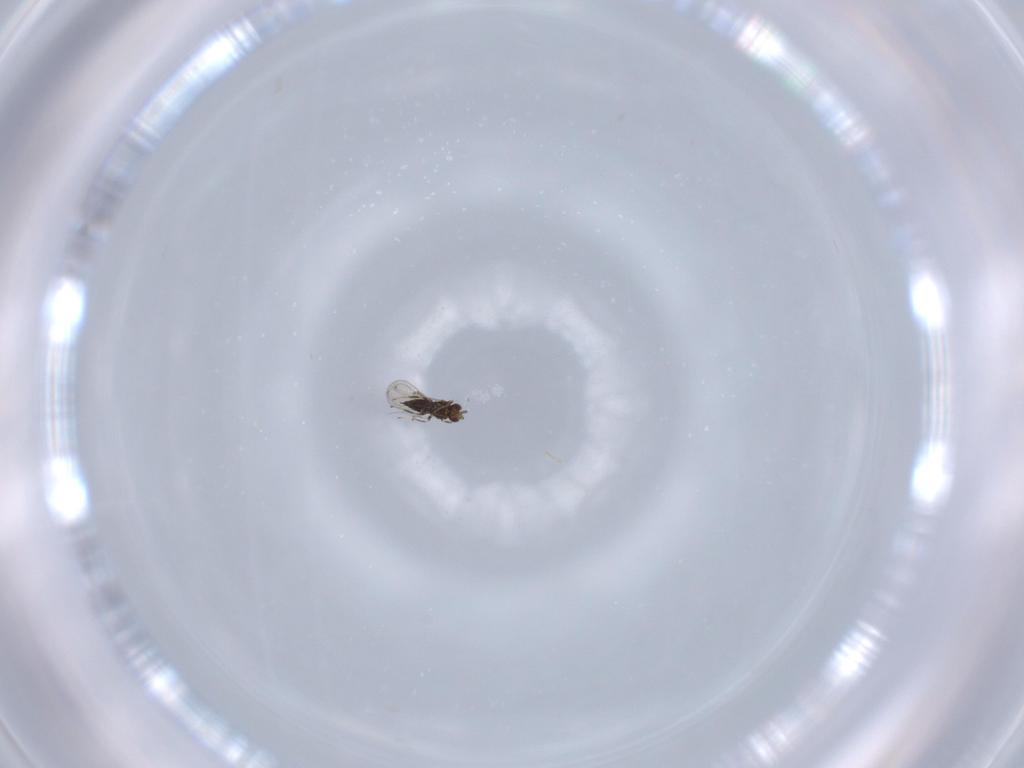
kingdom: Animalia
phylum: Arthropoda
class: Insecta
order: Hymenoptera
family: Trichogrammatidae
